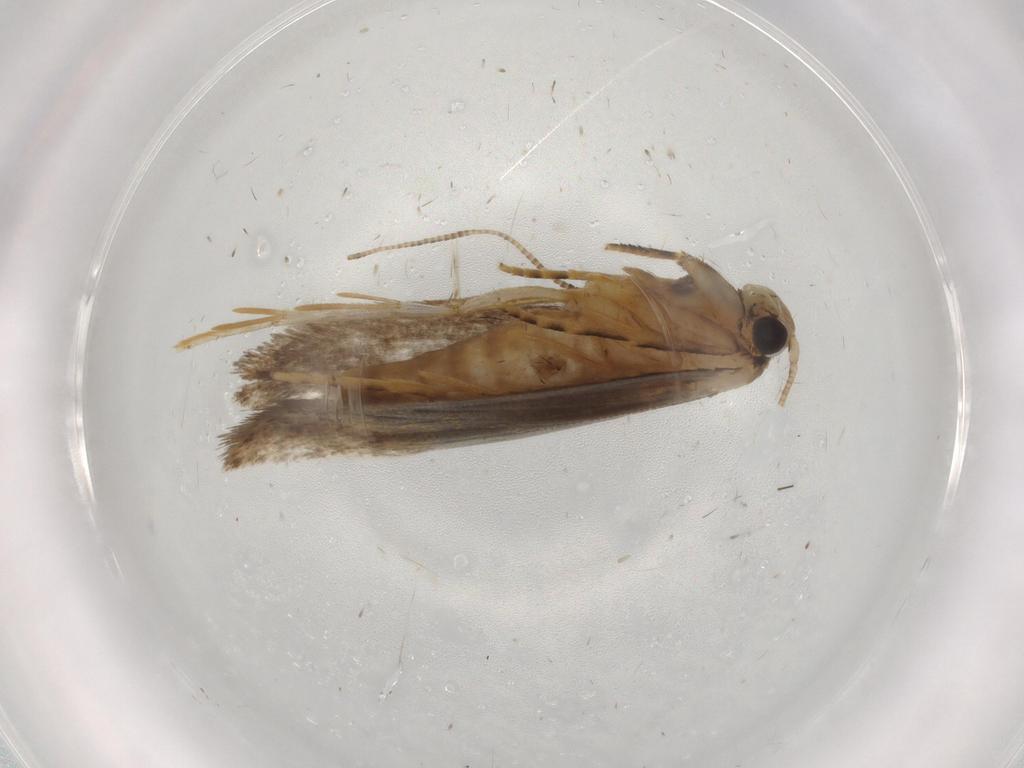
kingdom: Animalia
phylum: Arthropoda
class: Insecta
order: Lepidoptera
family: Tineidae
